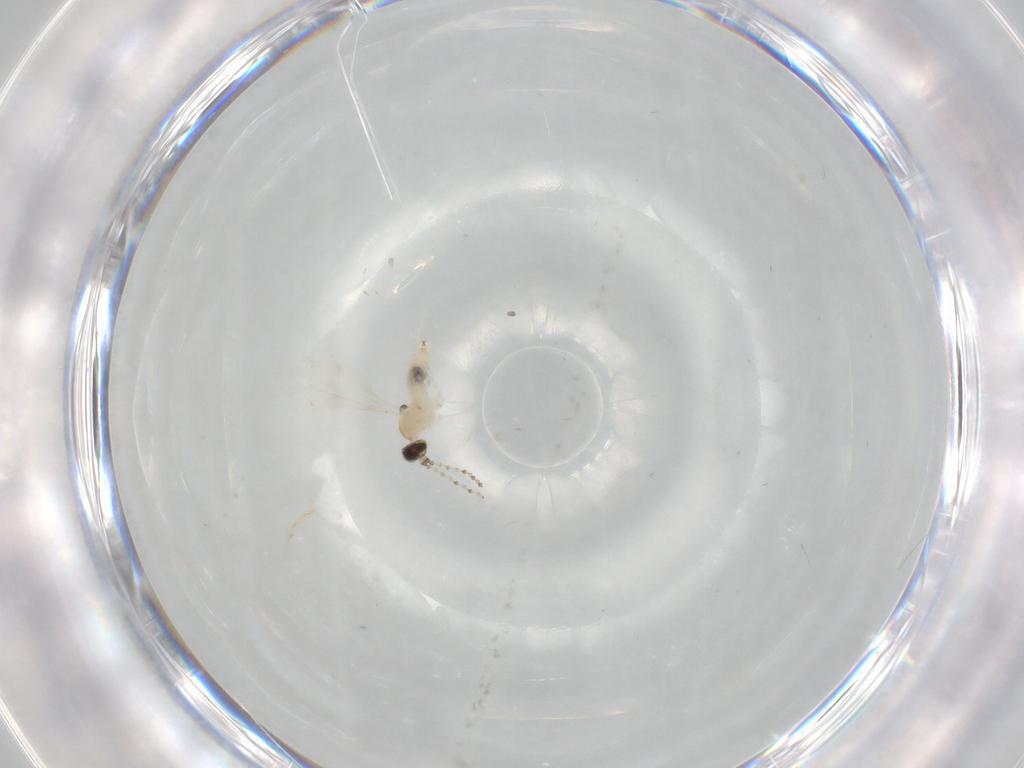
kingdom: Animalia
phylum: Arthropoda
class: Insecta
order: Diptera
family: Cecidomyiidae
